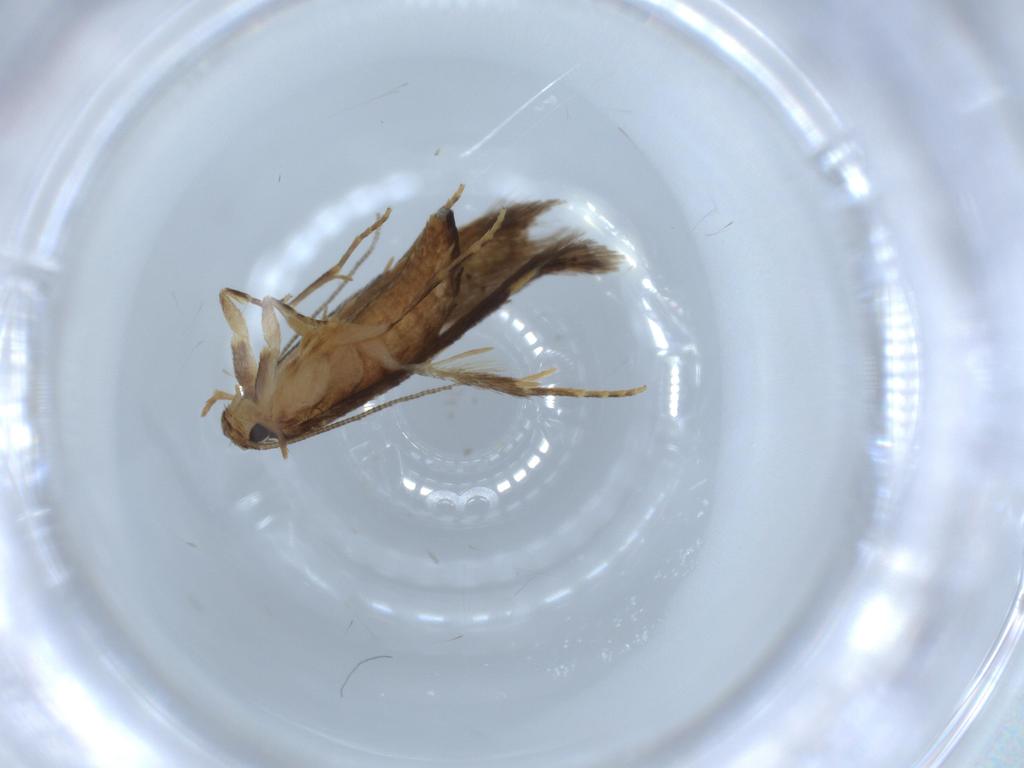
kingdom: Animalia
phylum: Arthropoda
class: Insecta
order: Lepidoptera
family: Tineidae
